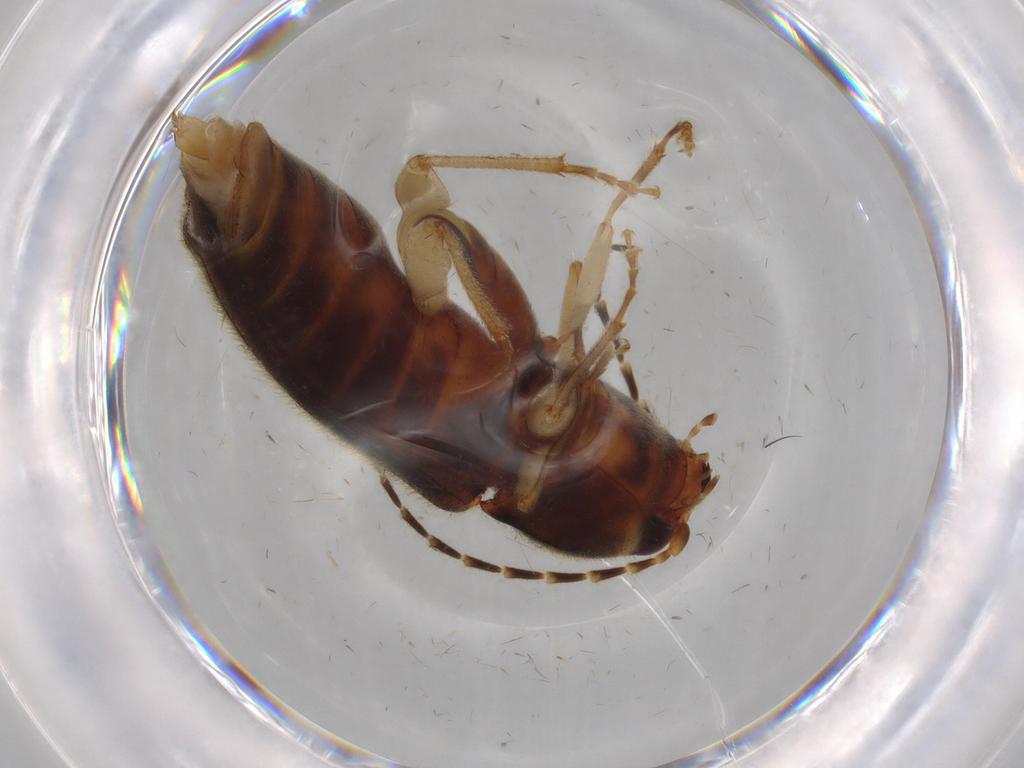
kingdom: Animalia
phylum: Arthropoda
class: Insecta
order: Coleoptera
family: Elateridae
